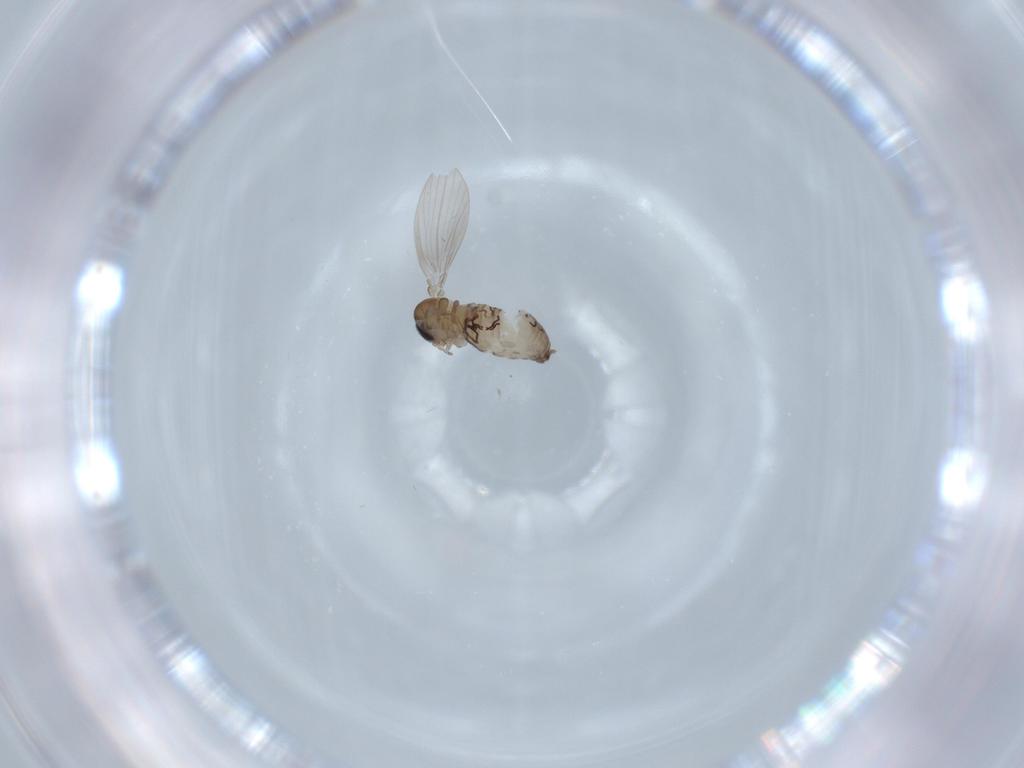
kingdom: Animalia
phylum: Arthropoda
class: Insecta
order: Diptera
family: Psychodidae
